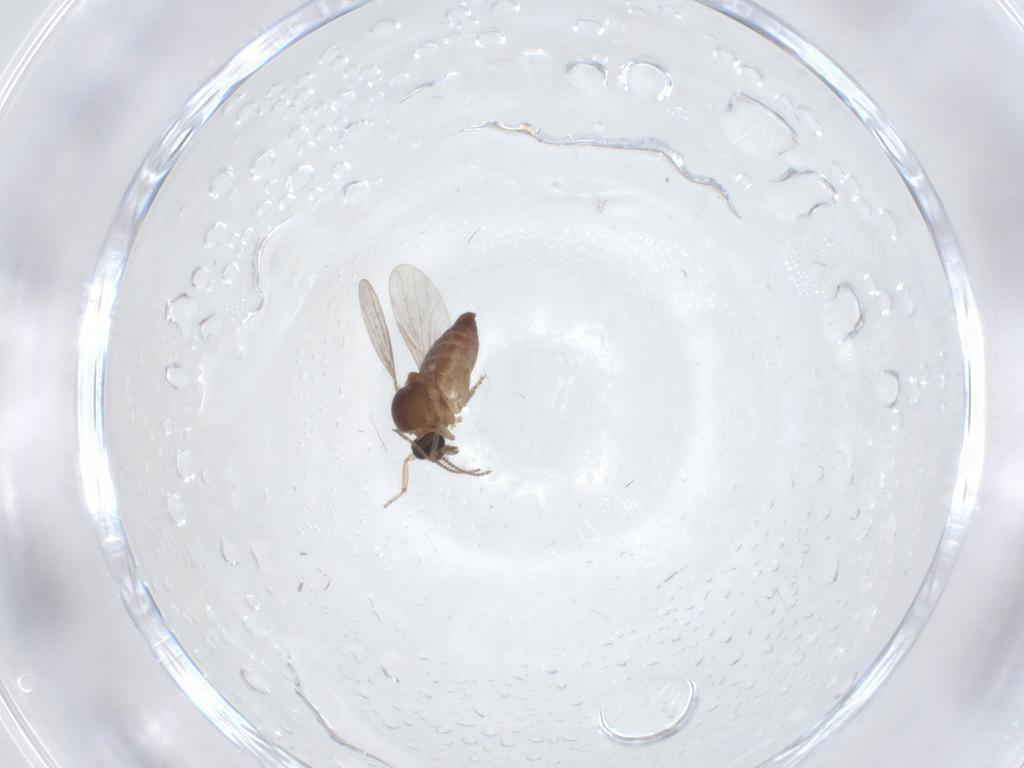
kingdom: Animalia
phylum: Arthropoda
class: Insecta
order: Diptera
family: Ceratopogonidae
